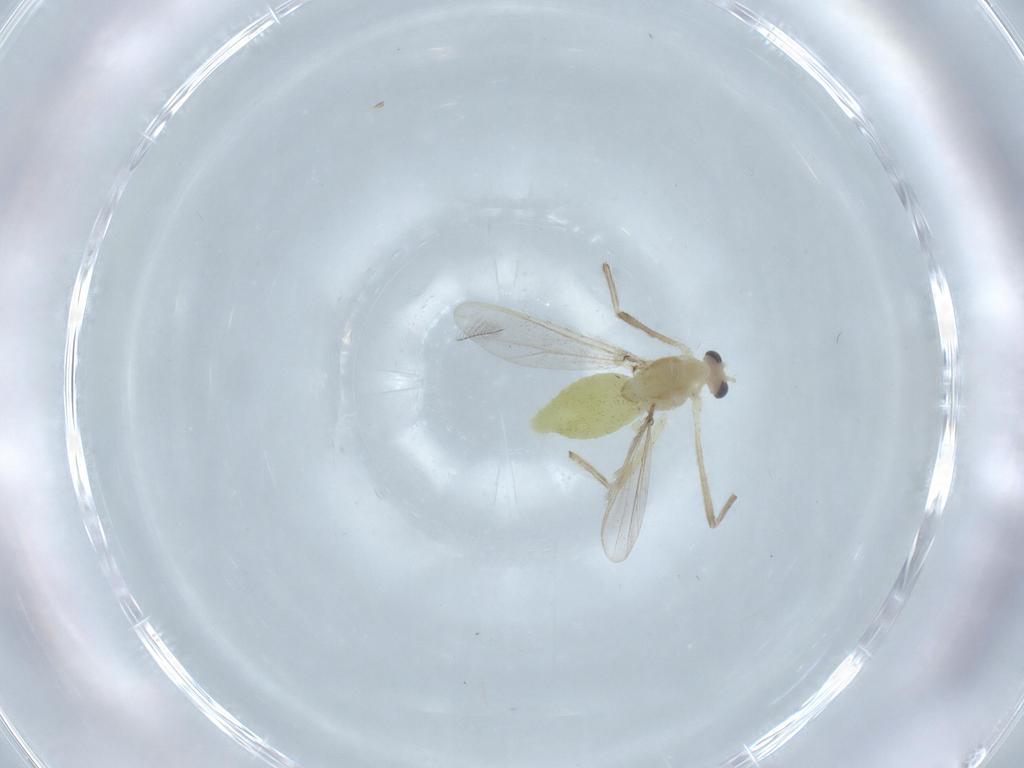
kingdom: Animalia
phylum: Arthropoda
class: Insecta
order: Diptera
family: Chironomidae
